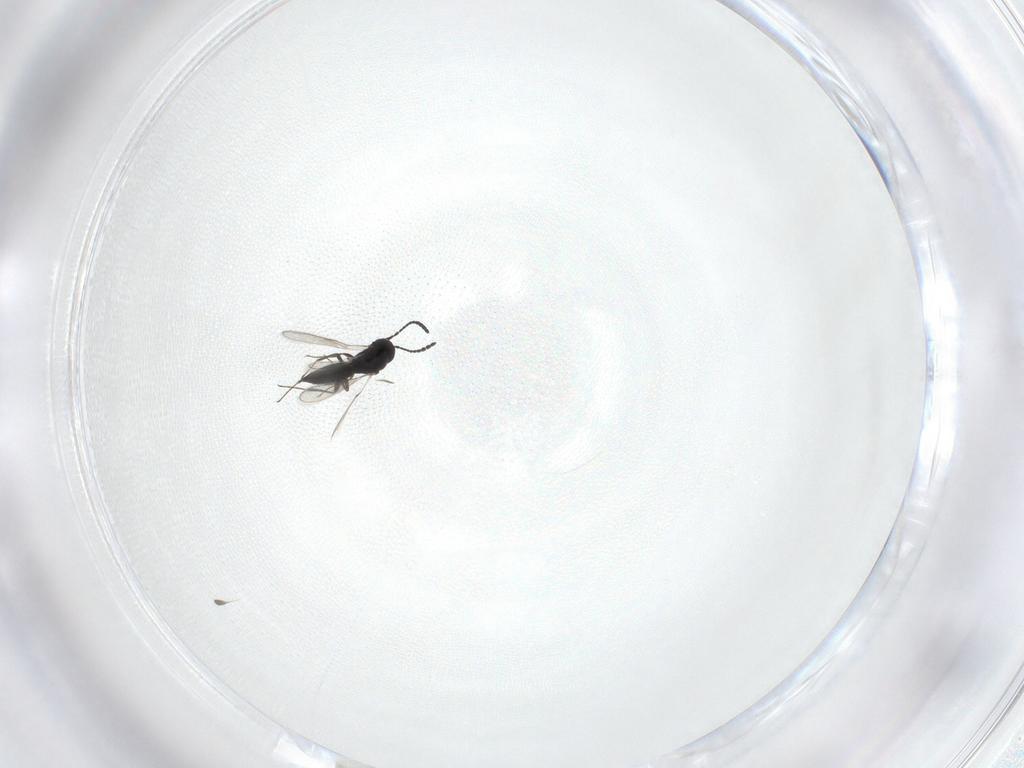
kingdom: Animalia
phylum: Arthropoda
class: Insecta
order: Hymenoptera
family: Scelionidae
